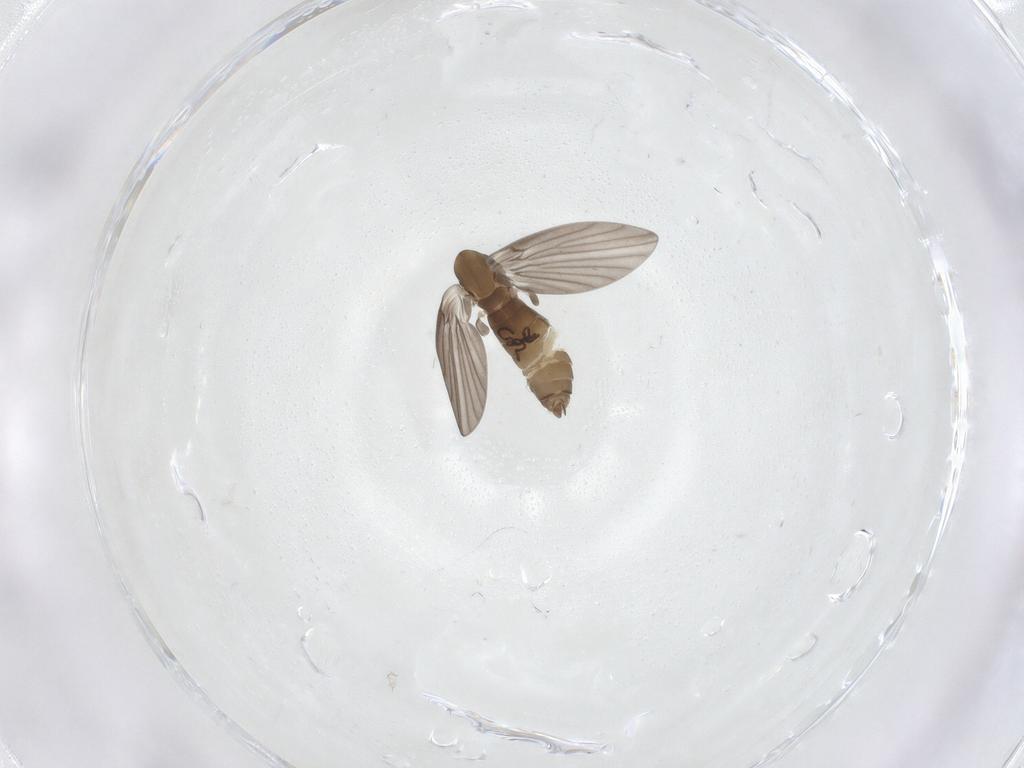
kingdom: Animalia
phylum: Arthropoda
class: Insecta
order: Diptera
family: Psychodidae
